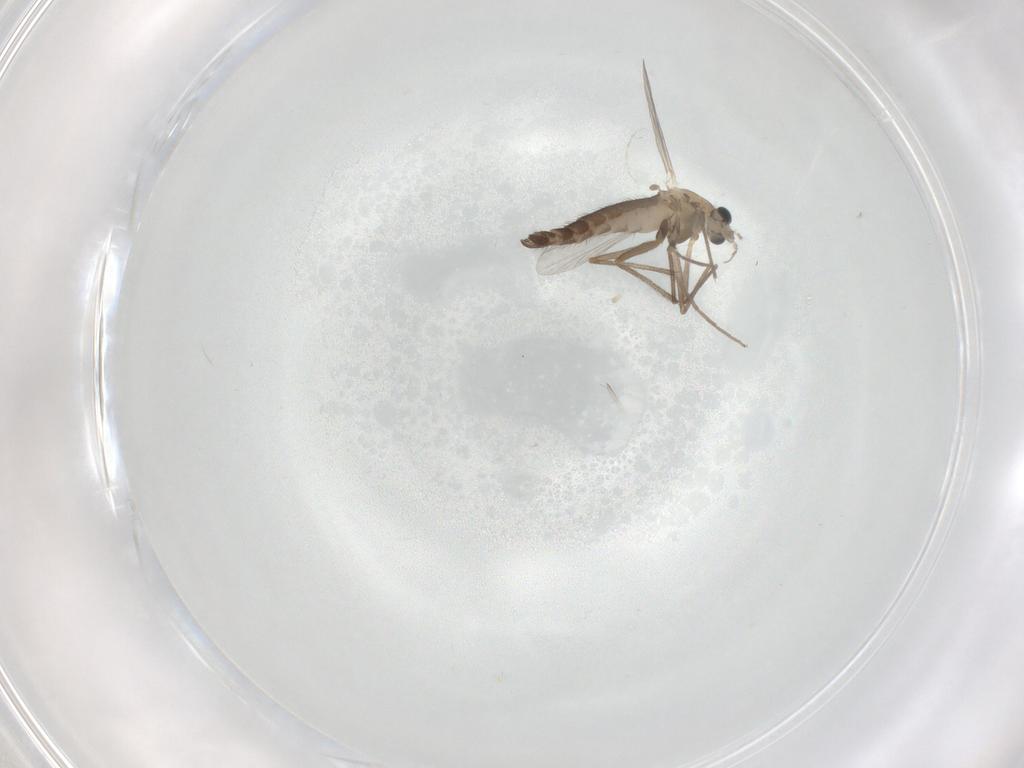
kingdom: Animalia
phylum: Arthropoda
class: Insecta
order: Diptera
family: Chironomidae
